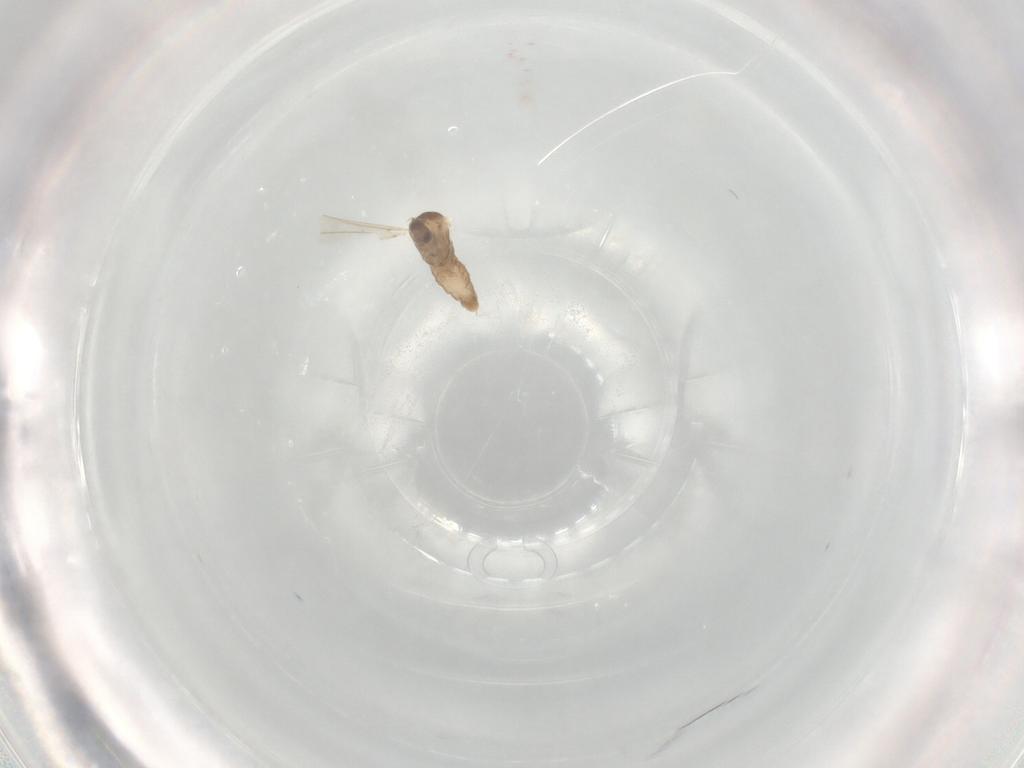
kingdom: Animalia
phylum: Arthropoda
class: Insecta
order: Diptera
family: Cecidomyiidae
